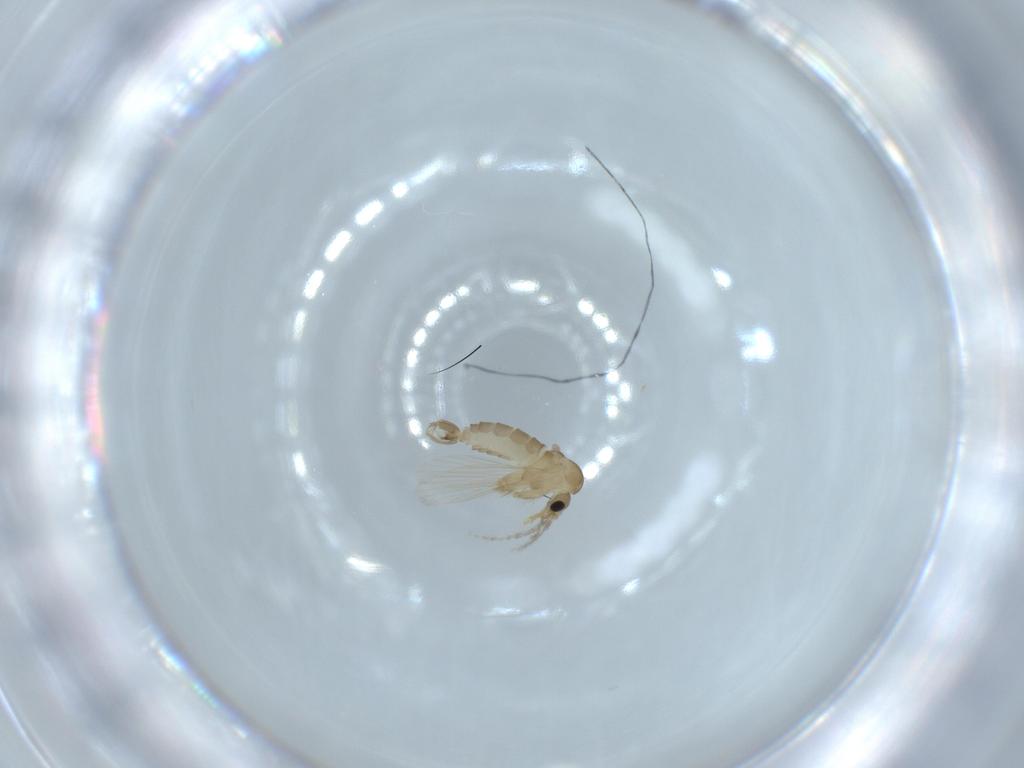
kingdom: Animalia
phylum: Arthropoda
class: Insecta
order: Diptera
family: Psychodidae
